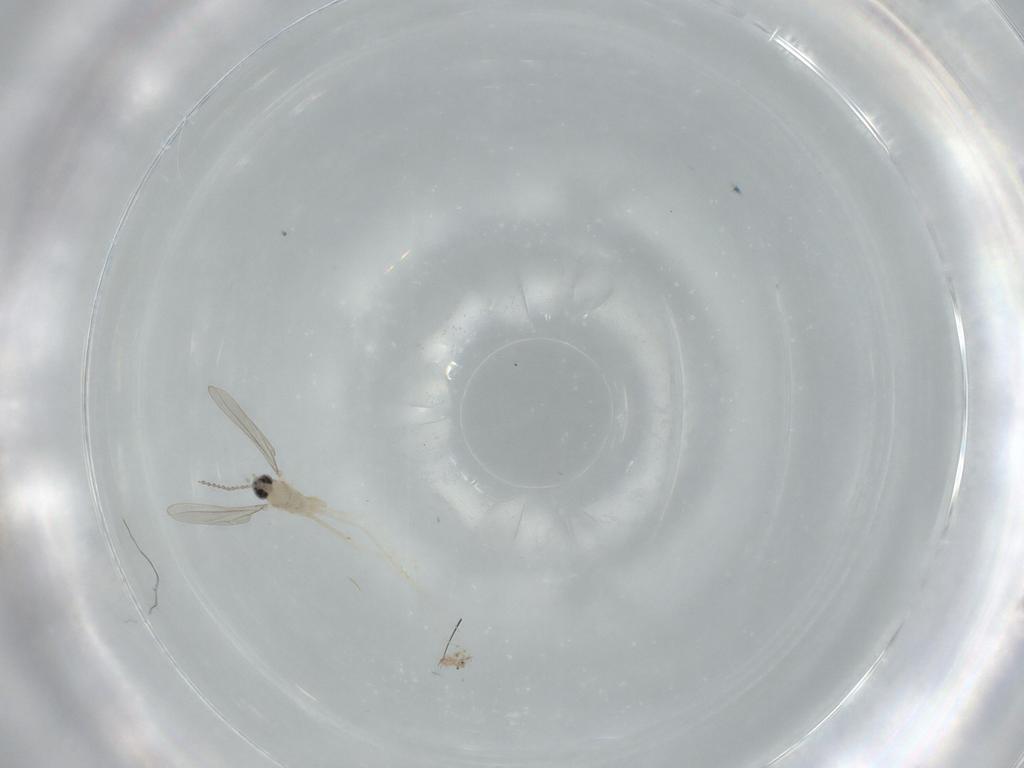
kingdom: Animalia
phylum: Arthropoda
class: Insecta
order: Diptera
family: Cecidomyiidae
